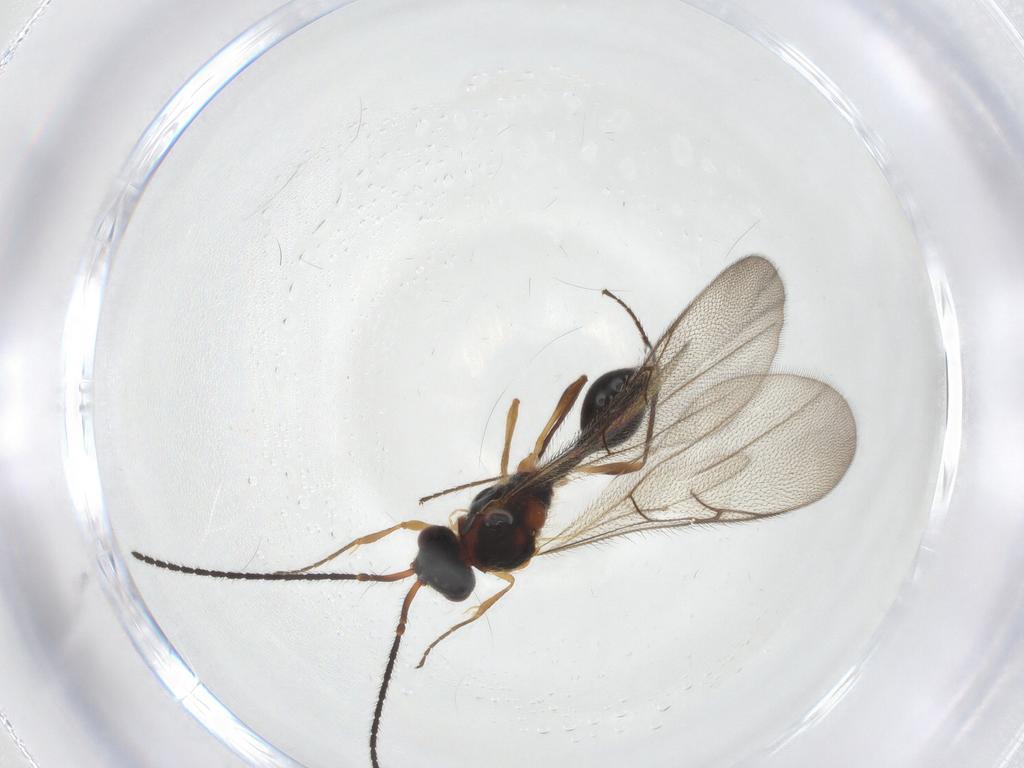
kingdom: Animalia
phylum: Arthropoda
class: Insecta
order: Hymenoptera
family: Diapriidae
